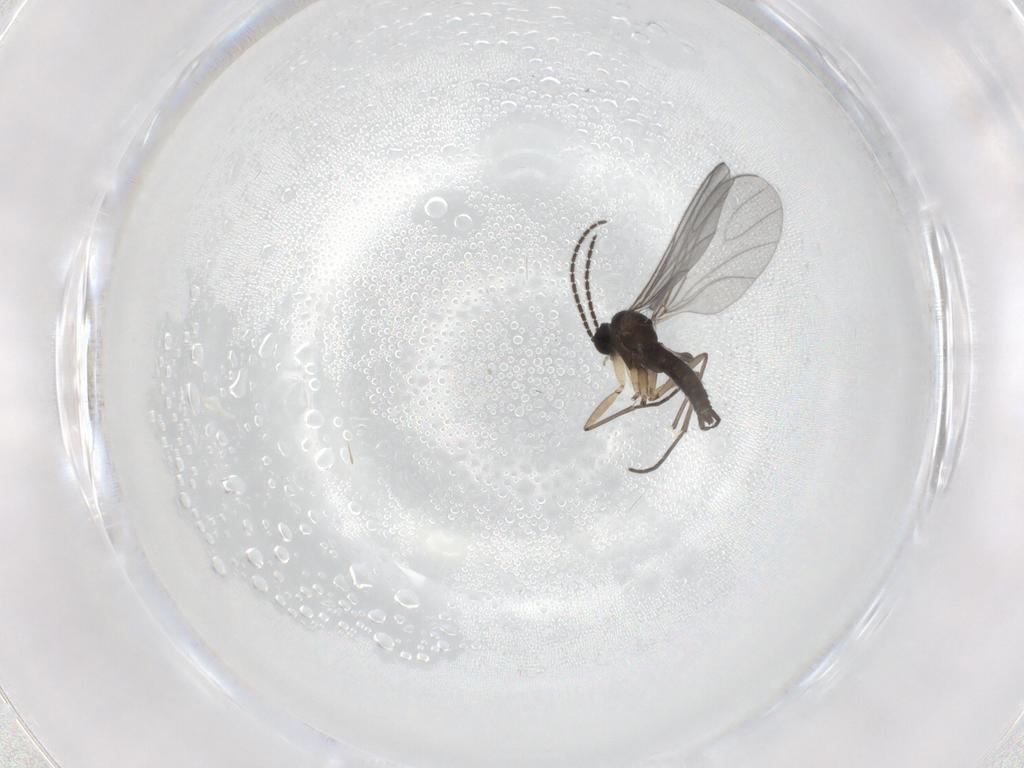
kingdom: Animalia
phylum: Arthropoda
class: Insecta
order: Diptera
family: Sciaridae
